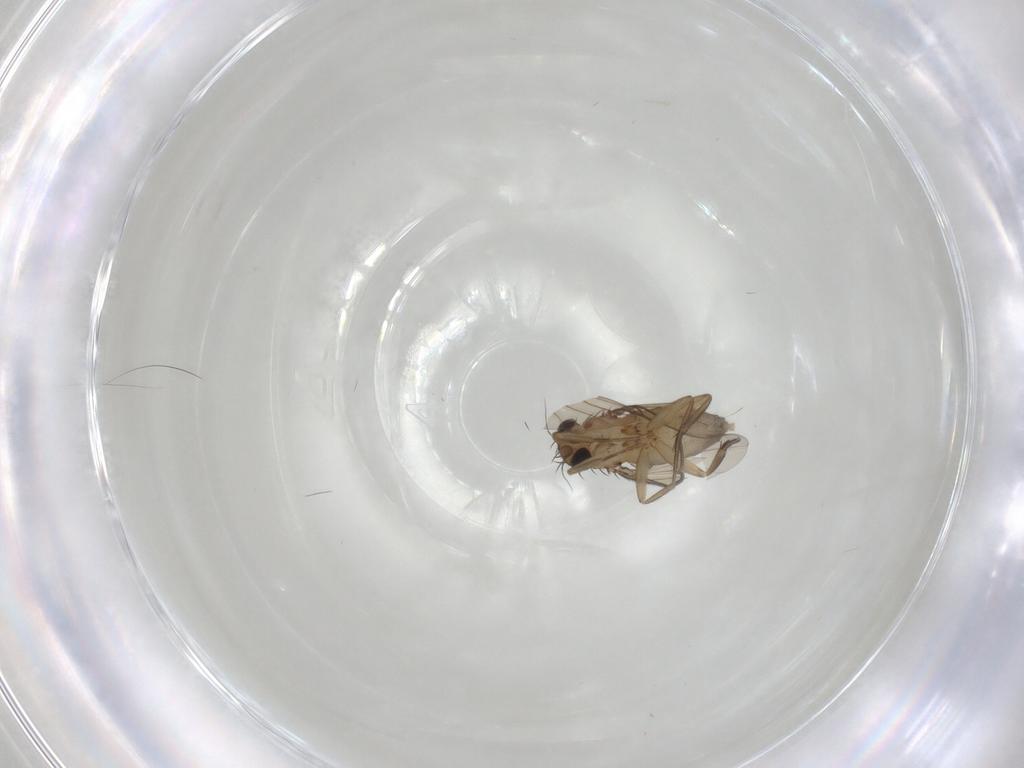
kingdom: Animalia
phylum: Arthropoda
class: Insecta
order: Diptera
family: Phoridae
